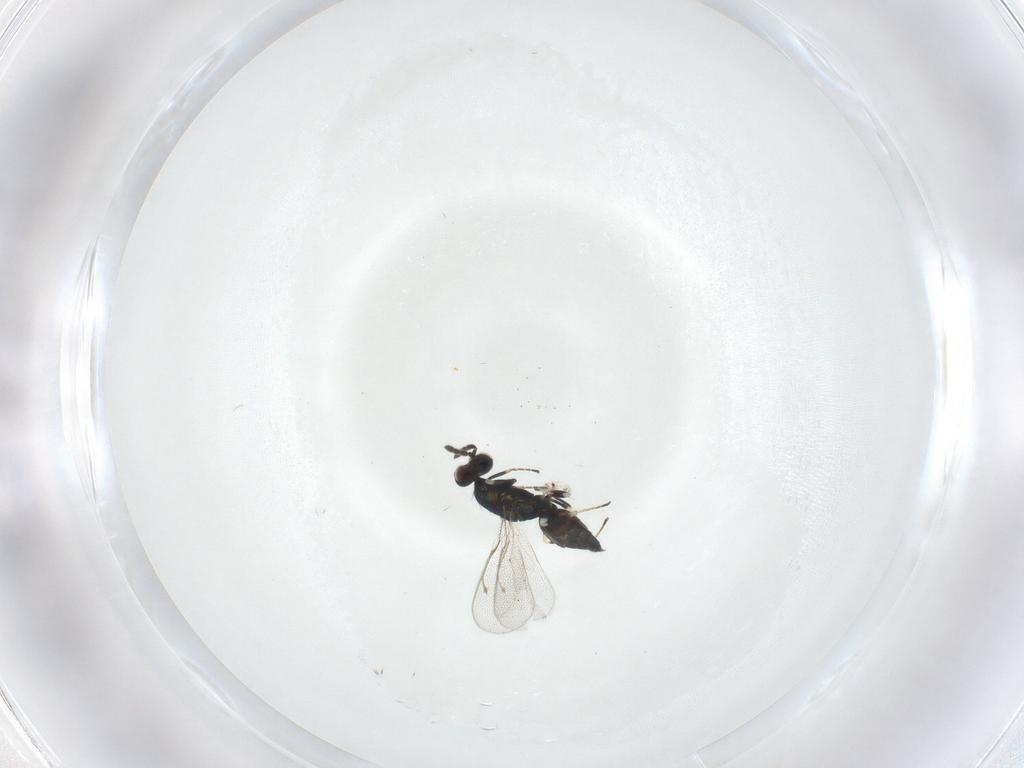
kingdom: Animalia
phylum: Arthropoda
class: Insecta
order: Hymenoptera
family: Eulophidae
